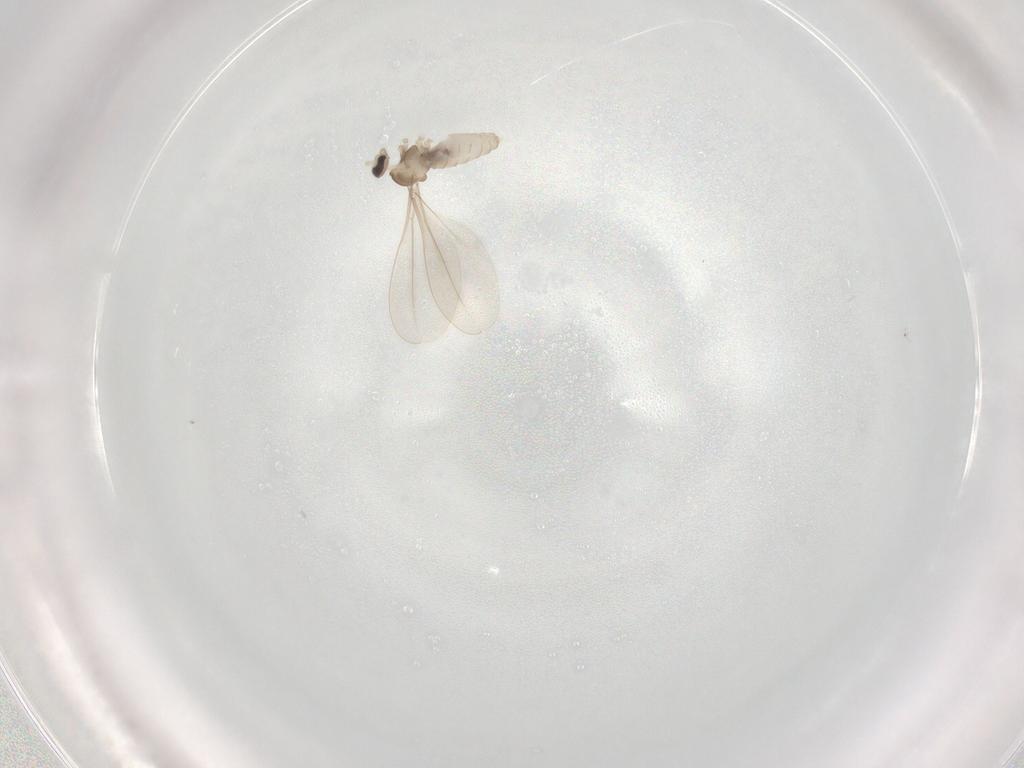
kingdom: Animalia
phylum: Arthropoda
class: Insecta
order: Diptera
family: Cecidomyiidae
